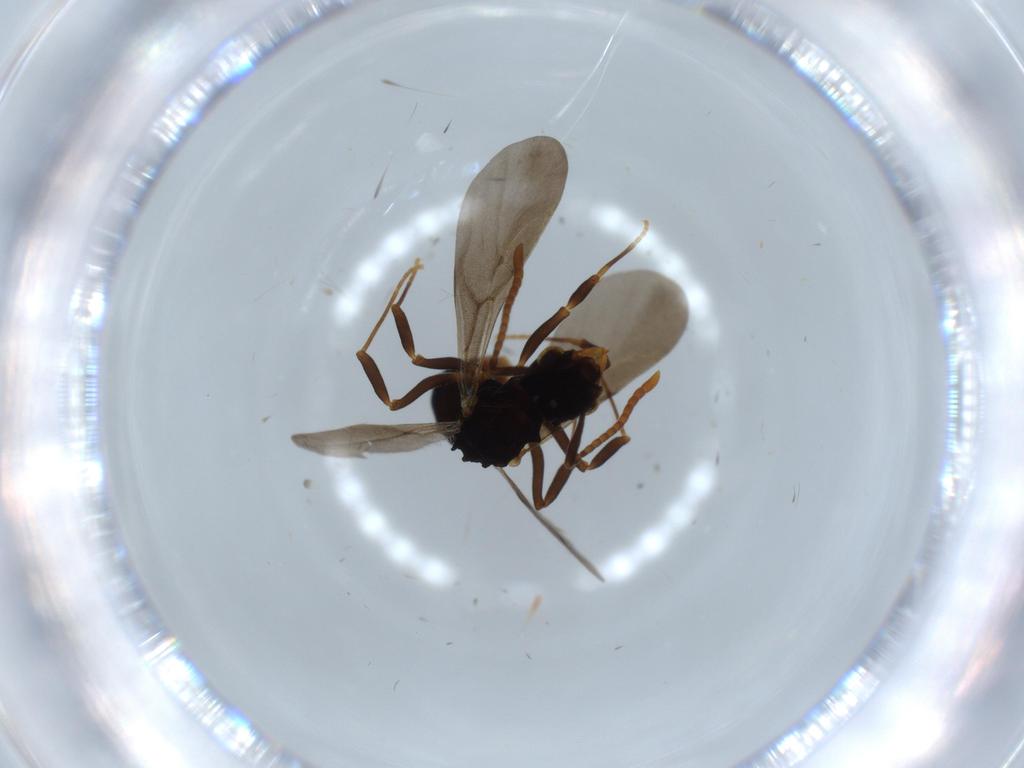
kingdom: Animalia
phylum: Arthropoda
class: Insecta
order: Hymenoptera
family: Formicidae
